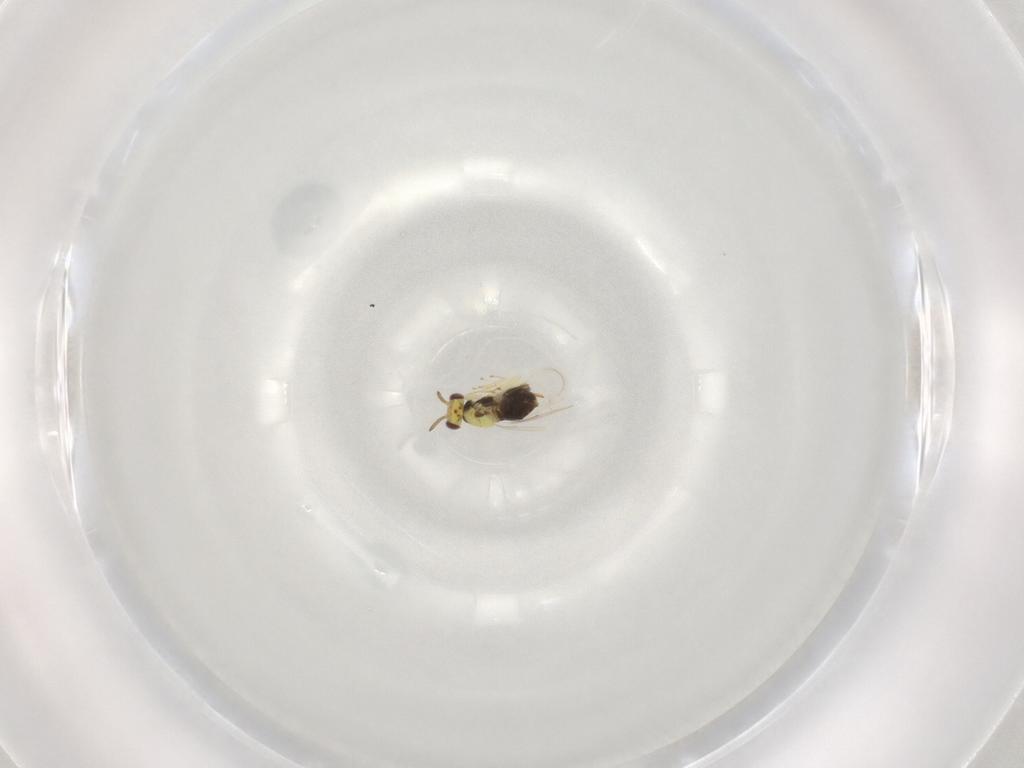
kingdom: Animalia
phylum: Arthropoda
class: Insecta
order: Hymenoptera
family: Aphelinidae
